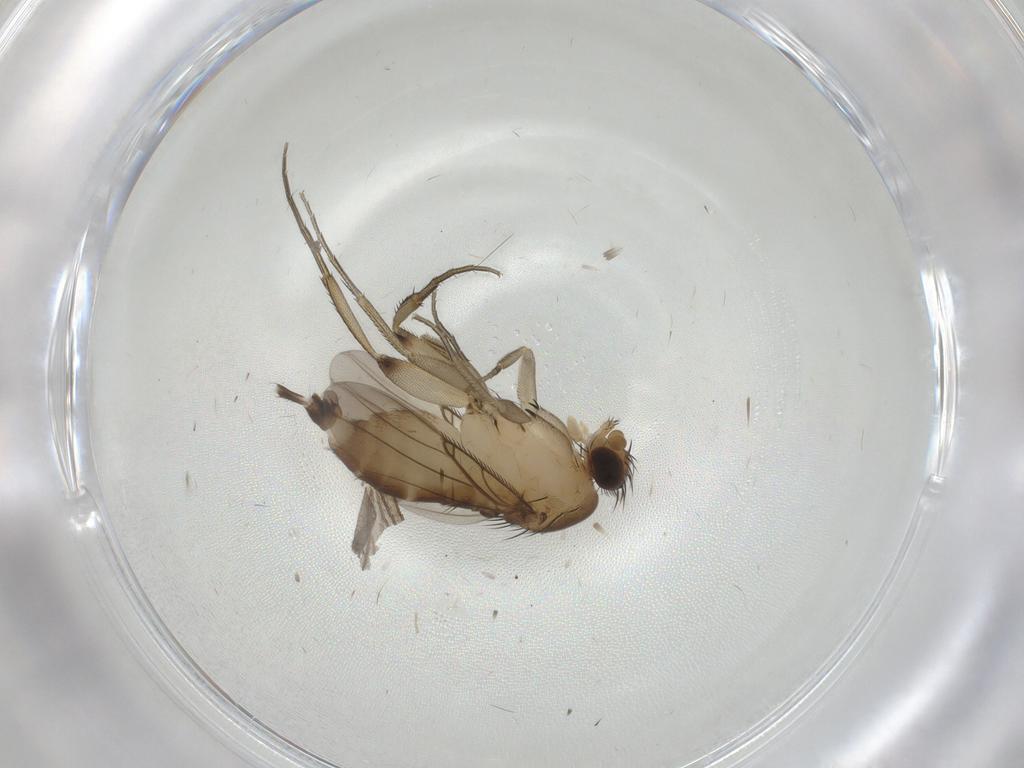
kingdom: Animalia
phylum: Arthropoda
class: Insecta
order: Diptera
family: Phoridae
